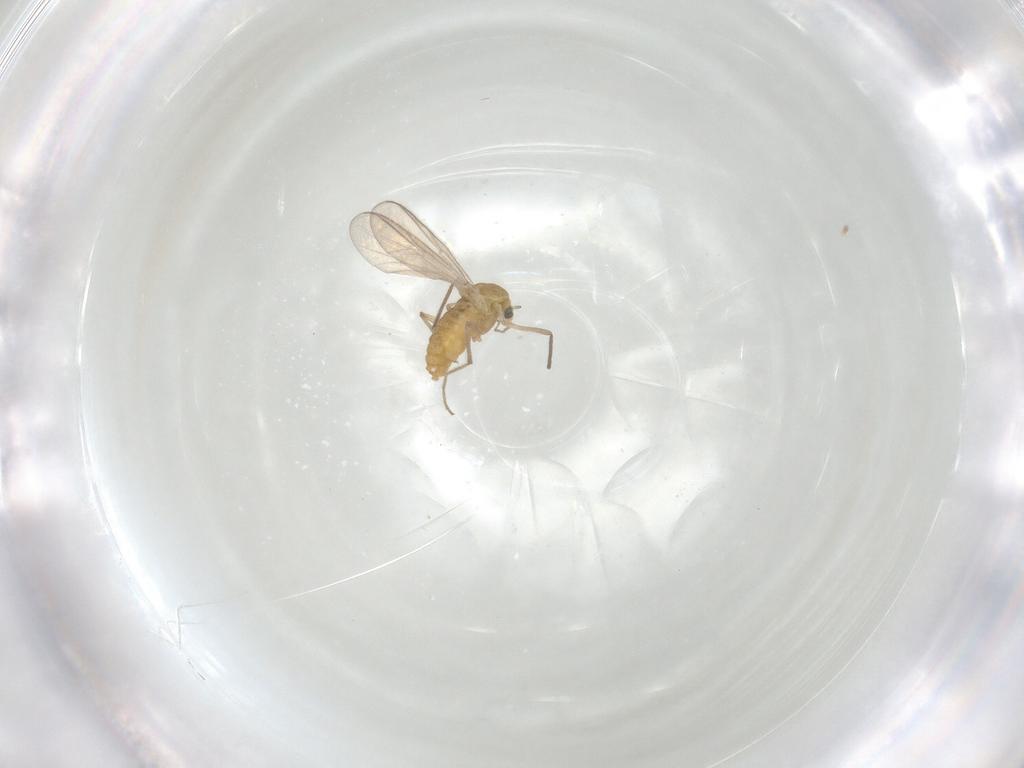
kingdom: Animalia
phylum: Arthropoda
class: Insecta
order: Diptera
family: Chironomidae
